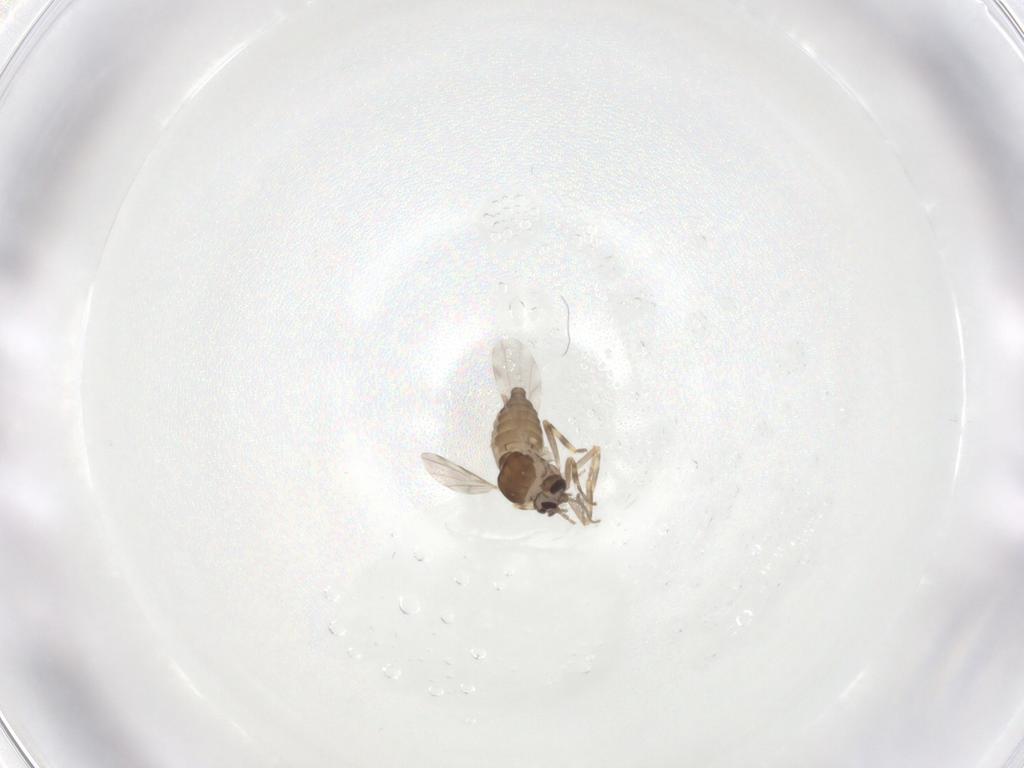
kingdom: Animalia
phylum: Arthropoda
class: Insecta
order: Diptera
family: Ceratopogonidae
